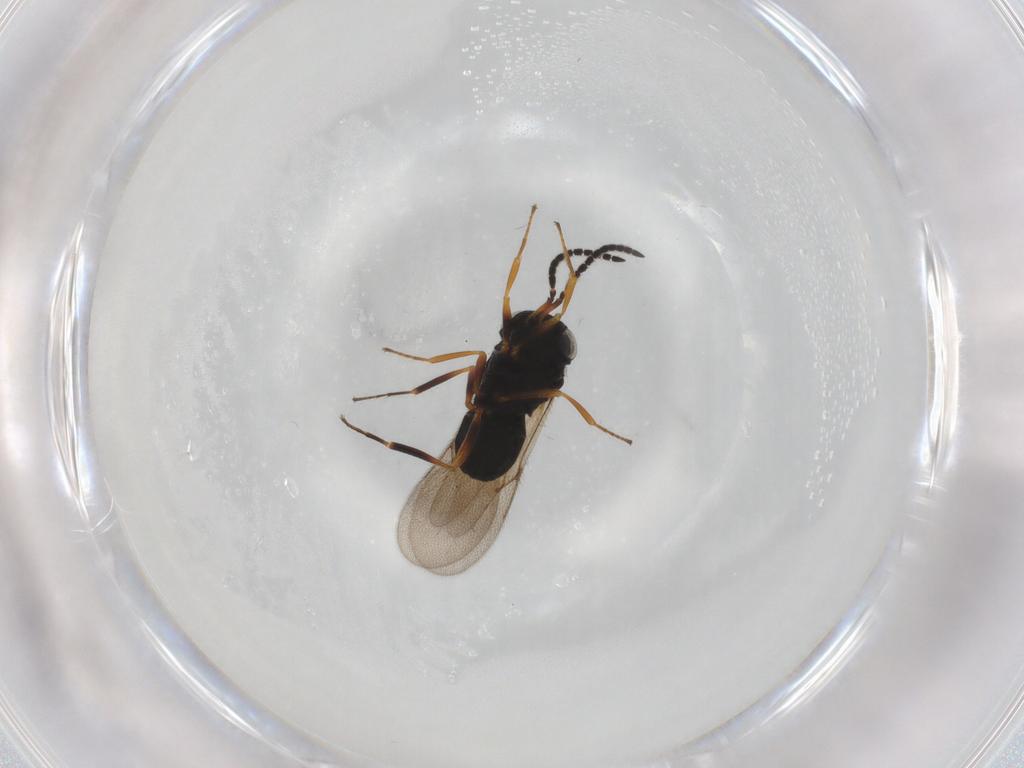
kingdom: Animalia
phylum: Arthropoda
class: Insecta
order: Hymenoptera
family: Scelionidae
